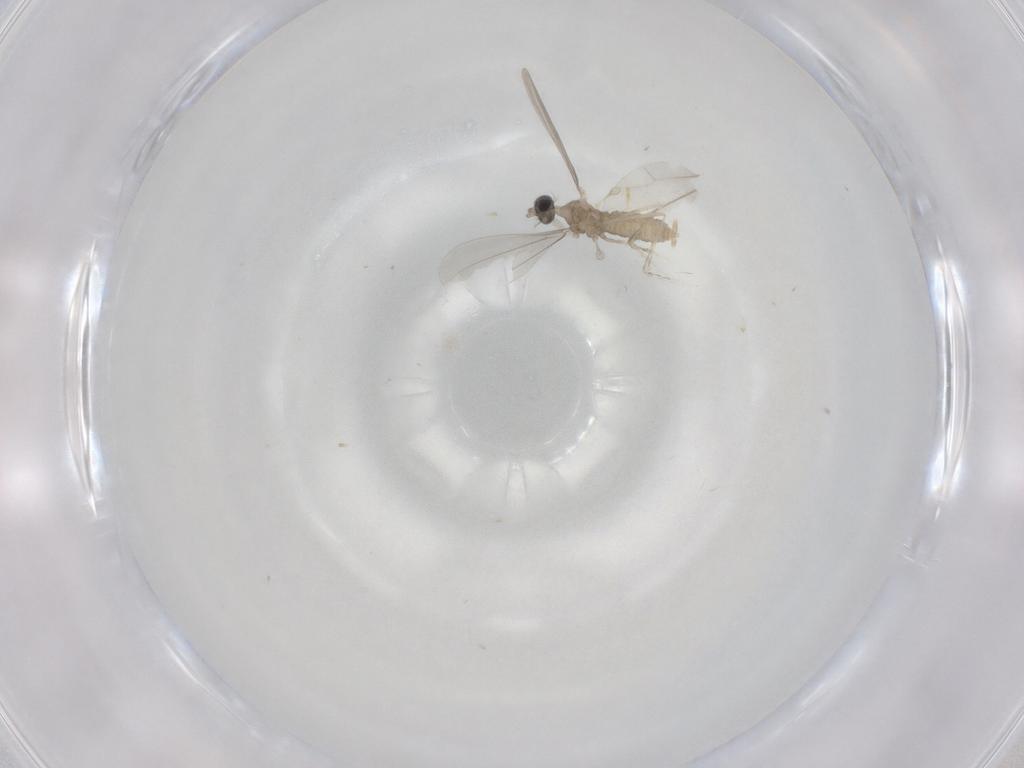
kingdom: Animalia
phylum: Arthropoda
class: Insecta
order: Diptera
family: Cecidomyiidae
